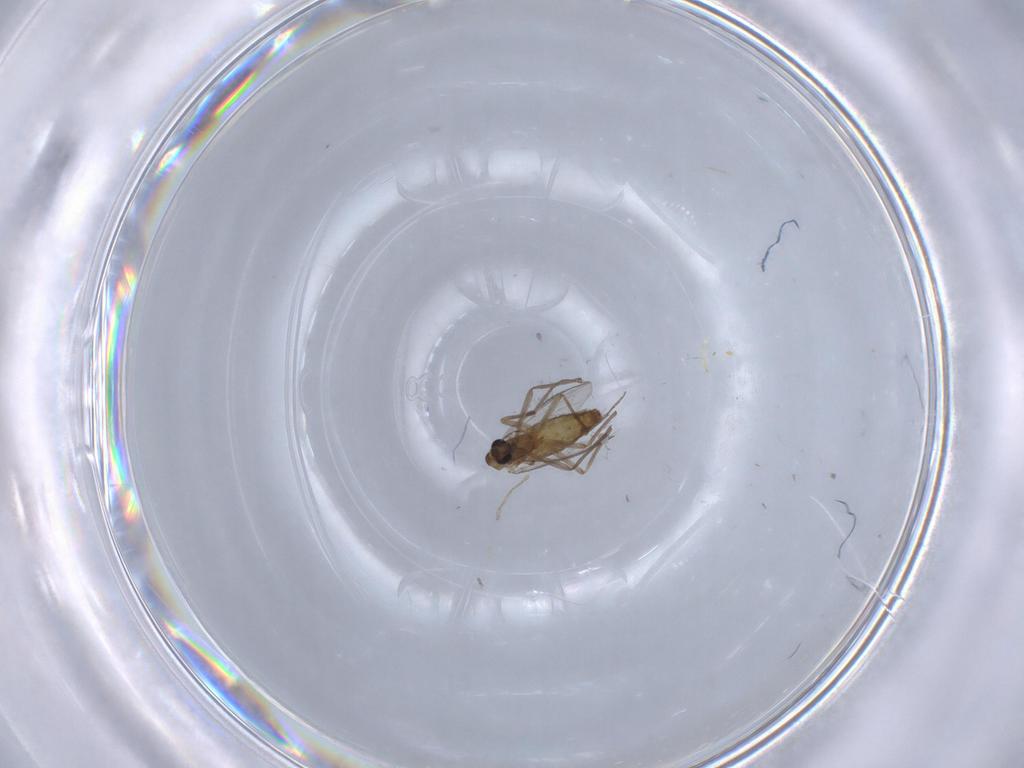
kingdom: Animalia
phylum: Arthropoda
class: Insecta
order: Diptera
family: Chironomidae
